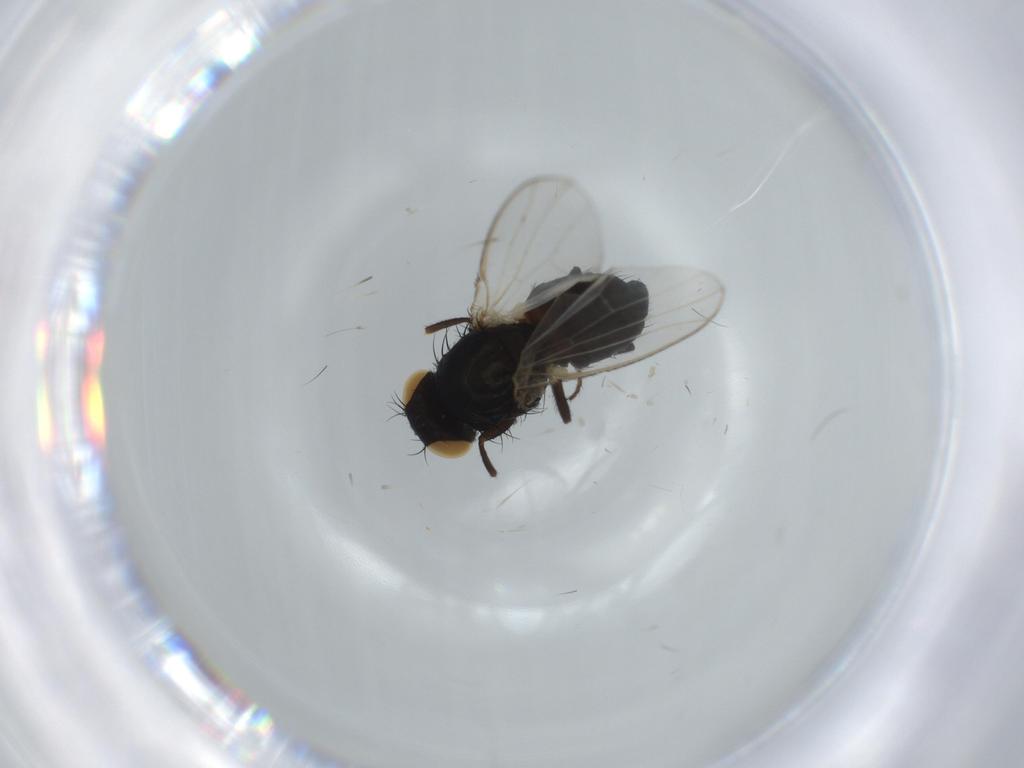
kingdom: Animalia
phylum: Arthropoda
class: Insecta
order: Diptera
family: Carnidae
